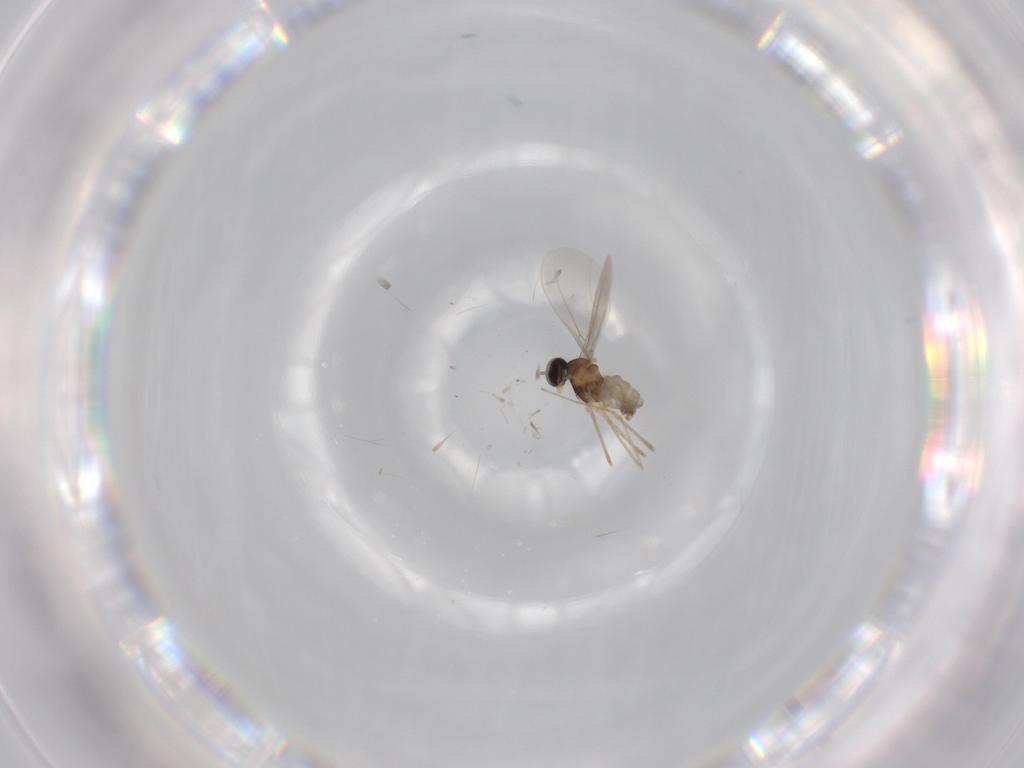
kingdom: Animalia
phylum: Arthropoda
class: Insecta
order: Diptera
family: Cecidomyiidae
